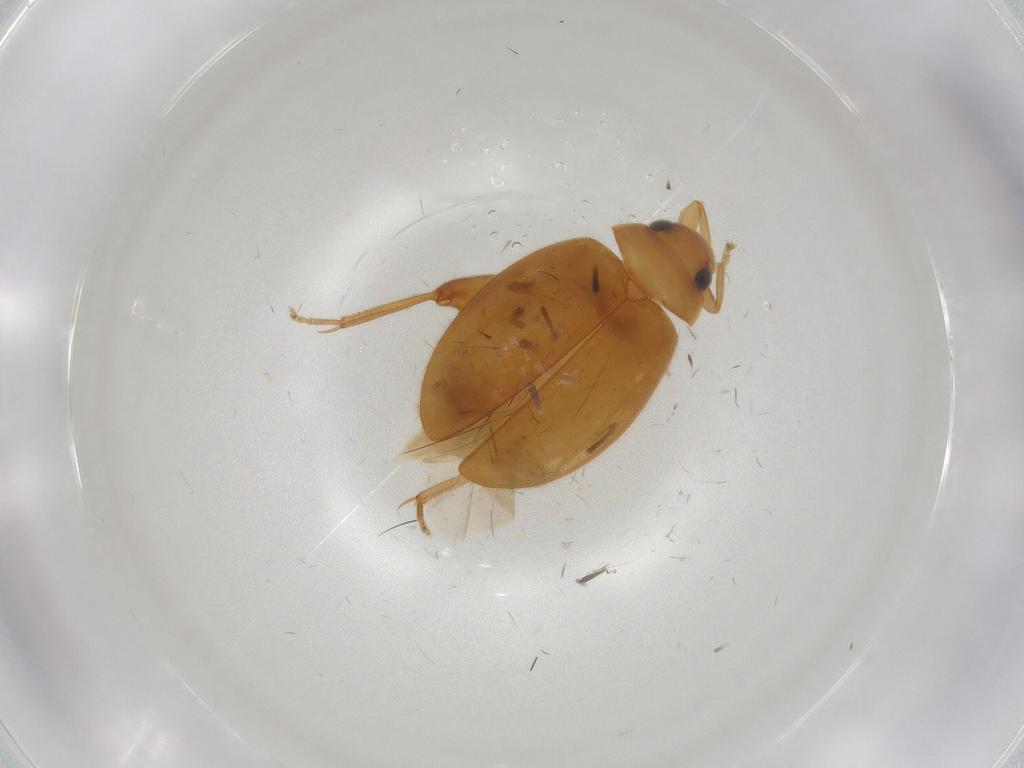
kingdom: Animalia
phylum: Arthropoda
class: Insecta
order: Coleoptera
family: Scirtidae
